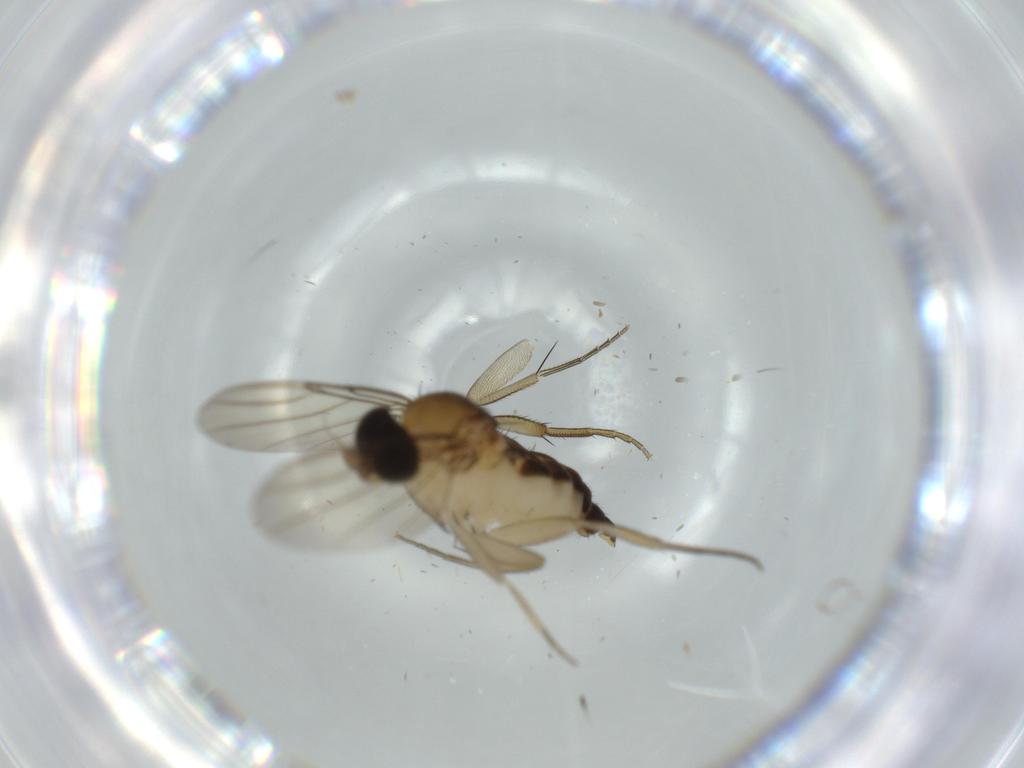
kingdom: Animalia
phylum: Arthropoda
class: Insecta
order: Diptera
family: Phoridae
